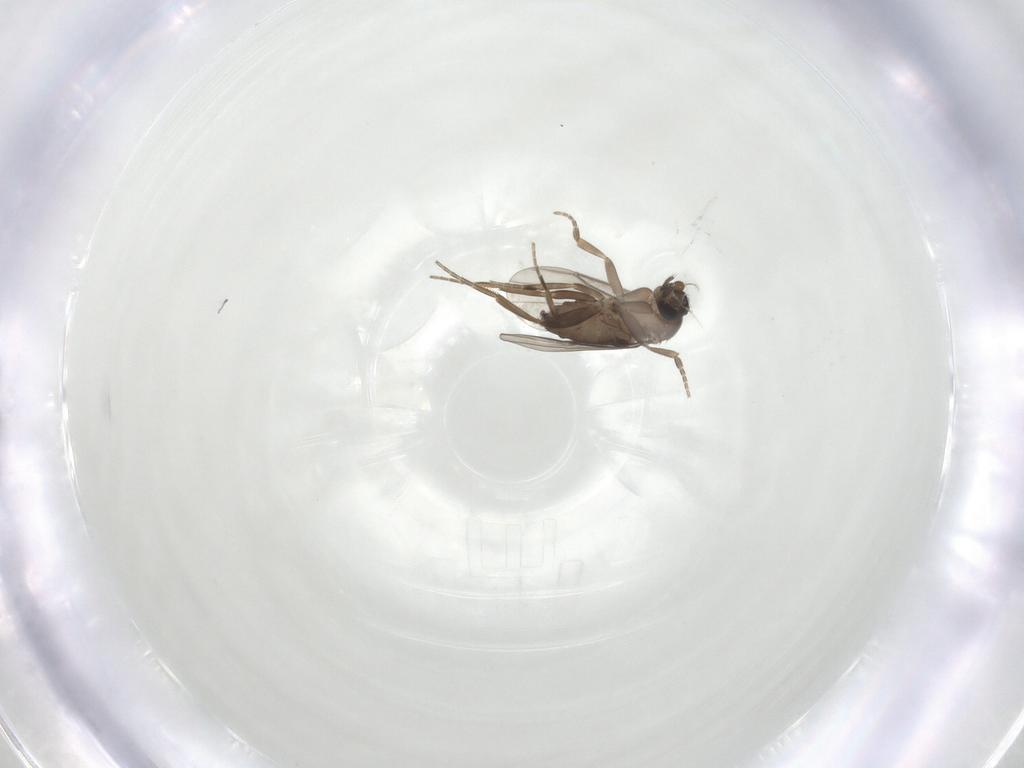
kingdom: Animalia
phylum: Arthropoda
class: Insecta
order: Diptera
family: Phoridae
